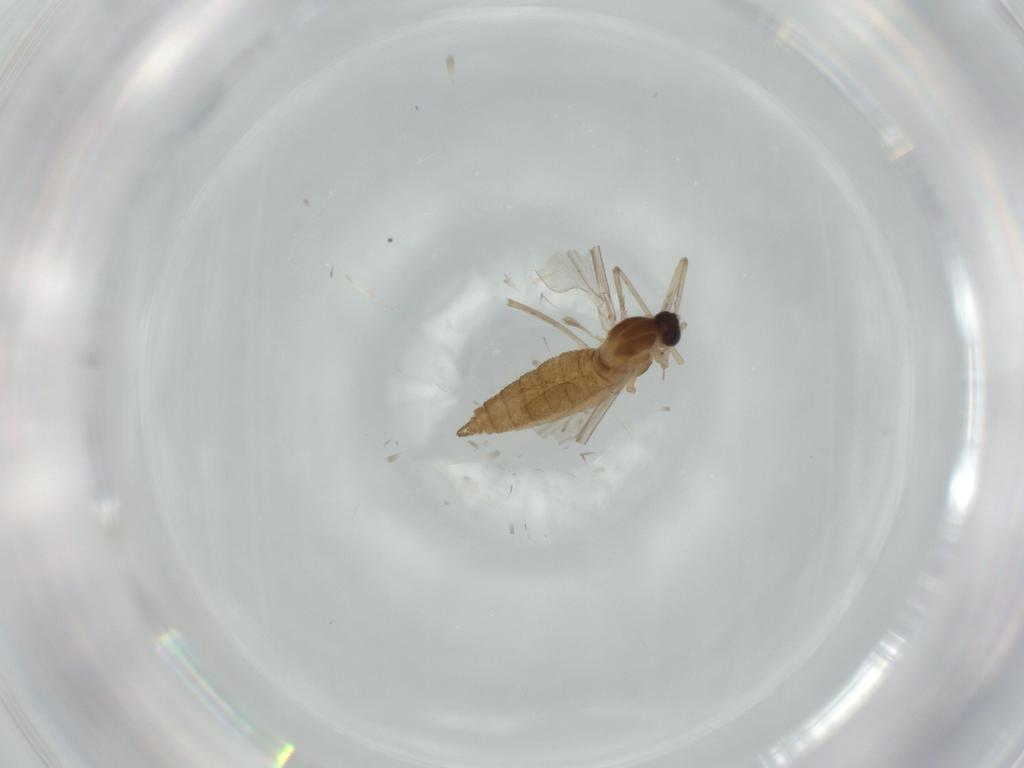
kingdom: Animalia
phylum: Arthropoda
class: Insecta
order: Diptera
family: Cecidomyiidae
